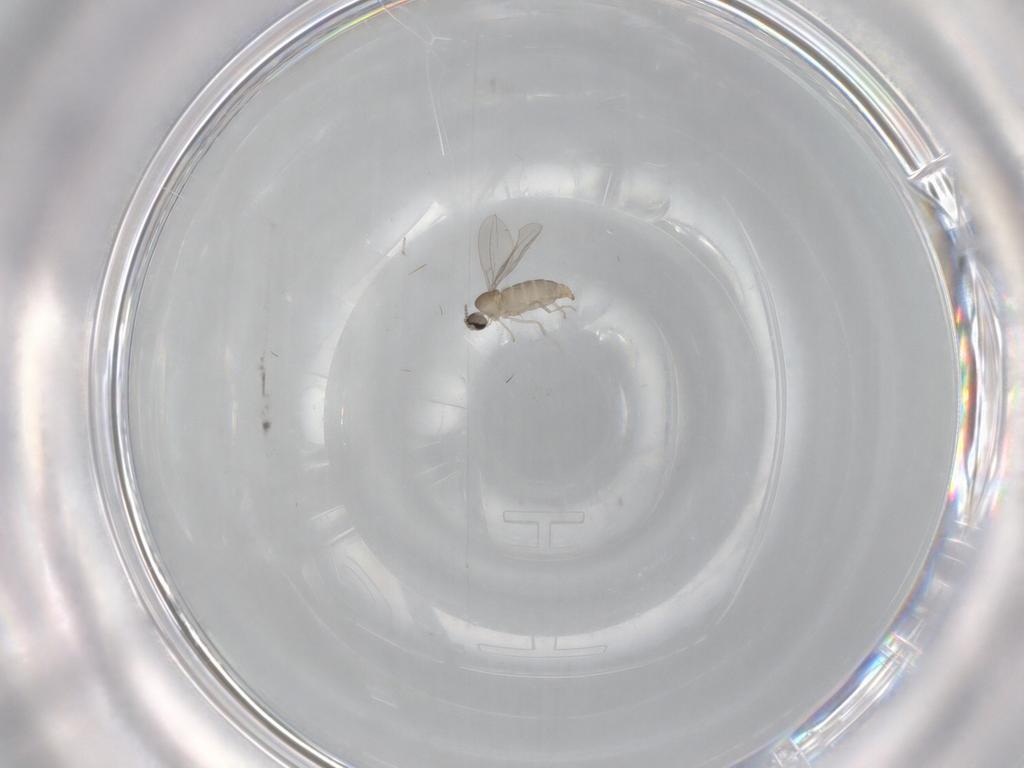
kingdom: Animalia
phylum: Arthropoda
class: Insecta
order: Diptera
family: Cecidomyiidae
